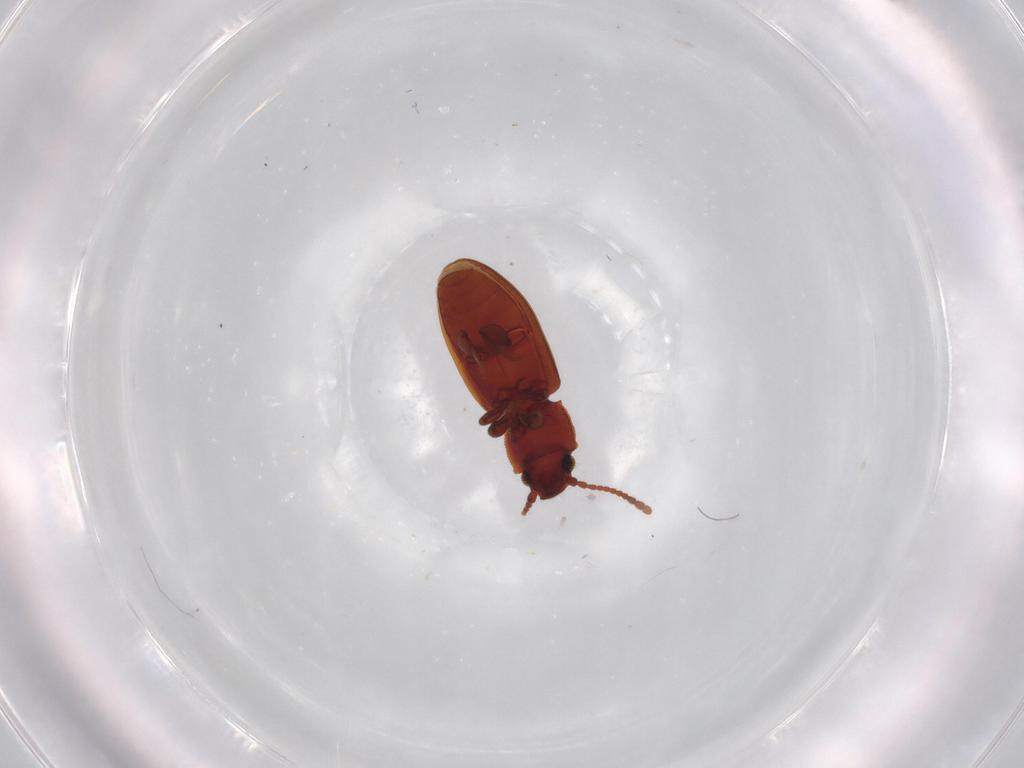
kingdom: Animalia
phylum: Arthropoda
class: Insecta
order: Coleoptera
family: Silvanidae
